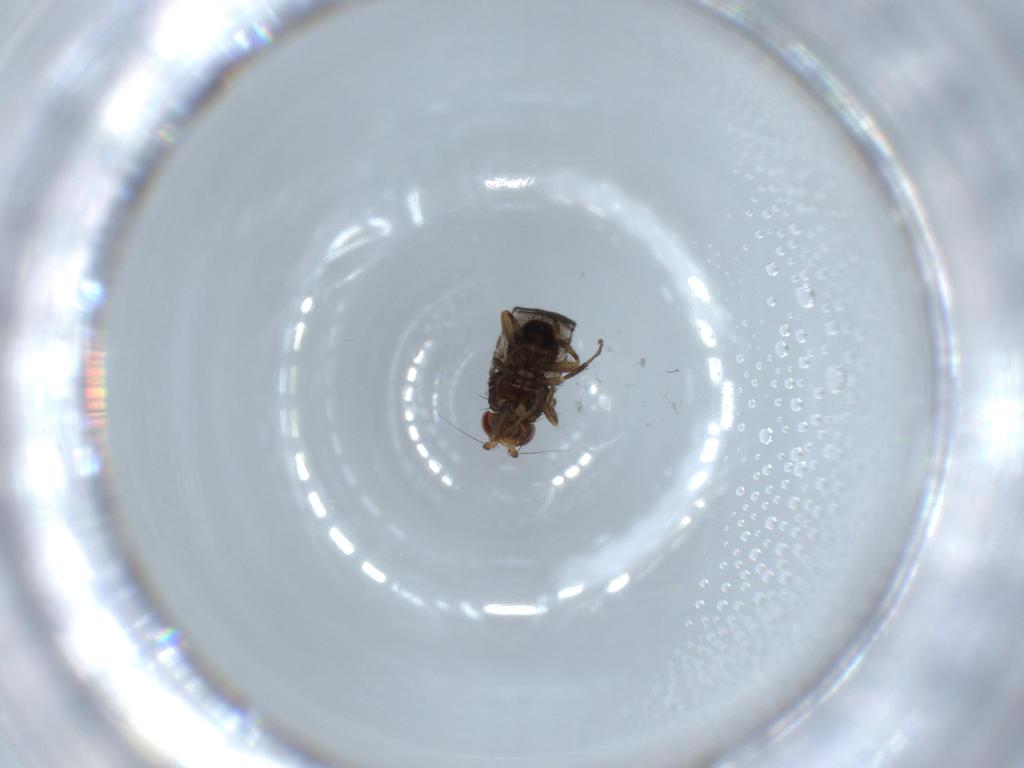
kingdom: Animalia
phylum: Arthropoda
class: Insecta
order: Diptera
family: Sphaeroceridae
